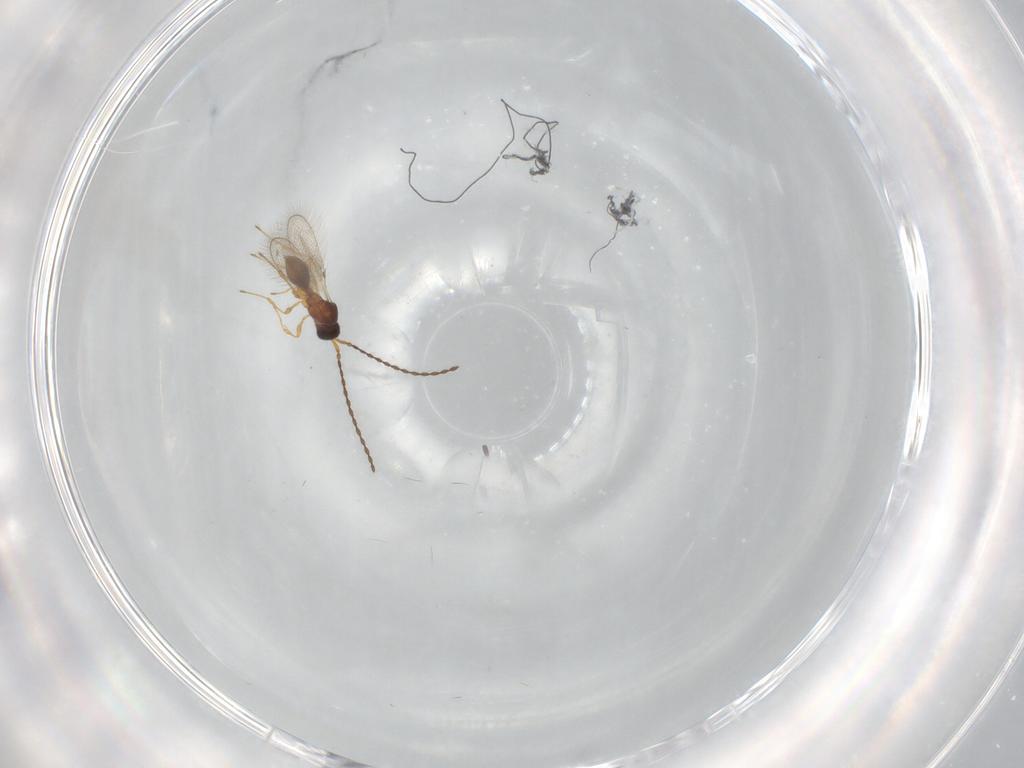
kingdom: Animalia
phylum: Arthropoda
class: Insecta
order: Hymenoptera
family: Diapriidae
